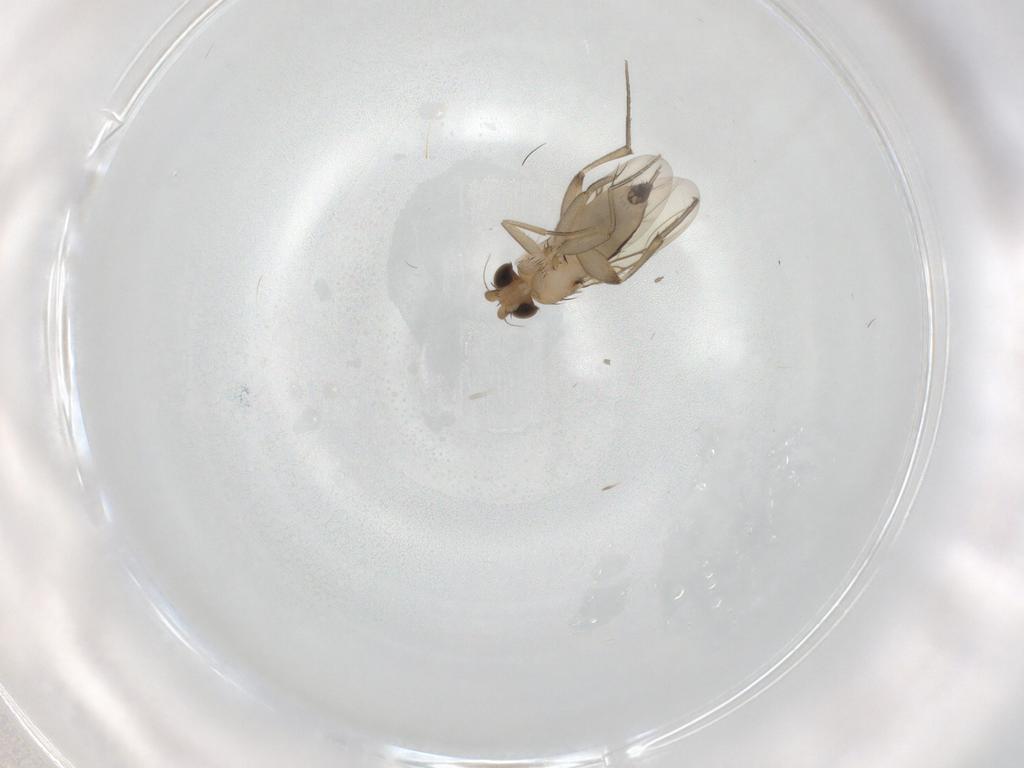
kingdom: Animalia
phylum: Arthropoda
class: Insecta
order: Diptera
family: Phoridae
